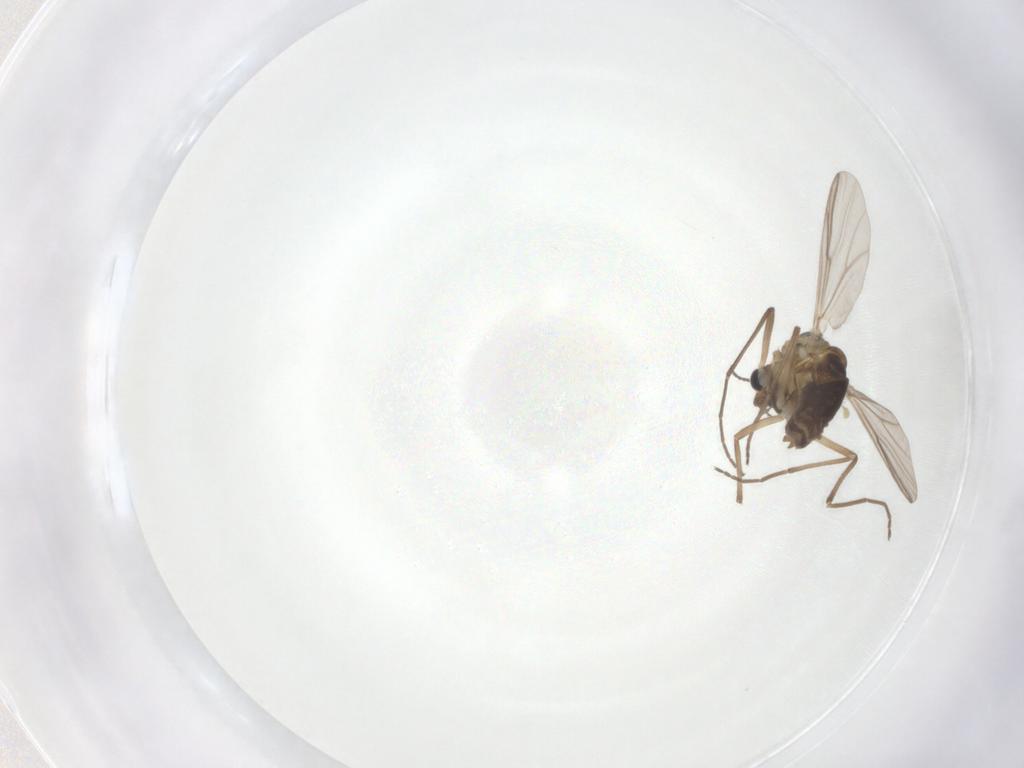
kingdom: Animalia
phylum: Arthropoda
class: Insecta
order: Diptera
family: Chironomidae
